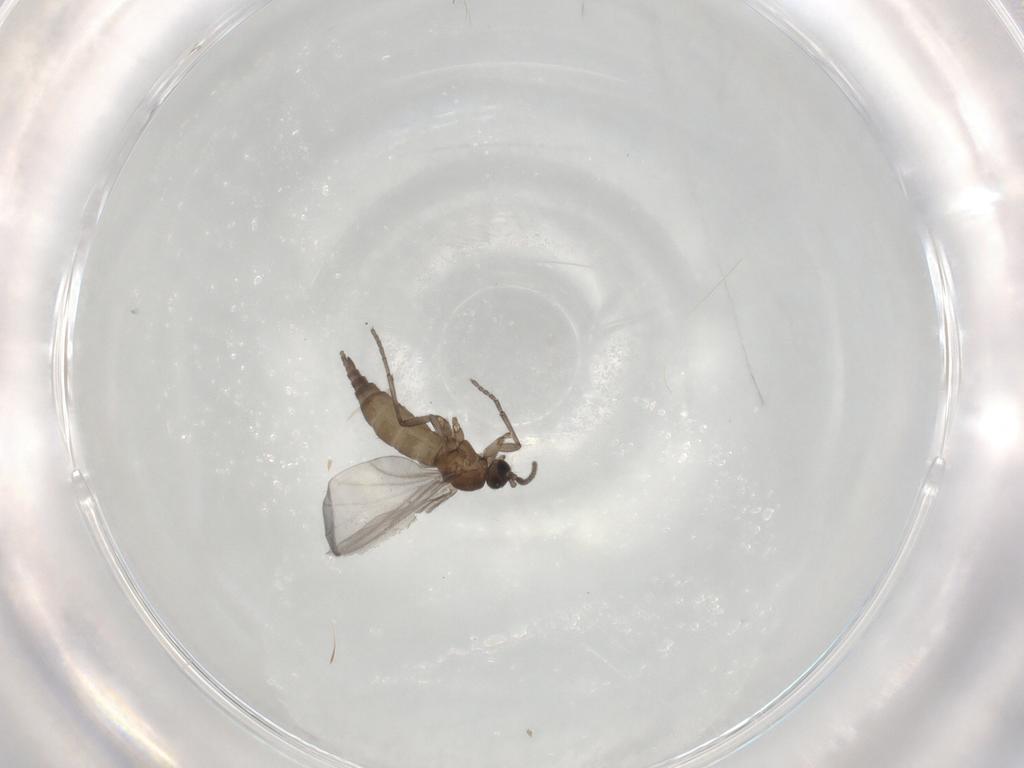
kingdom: Animalia
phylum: Arthropoda
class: Insecta
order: Diptera
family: Sciaridae
